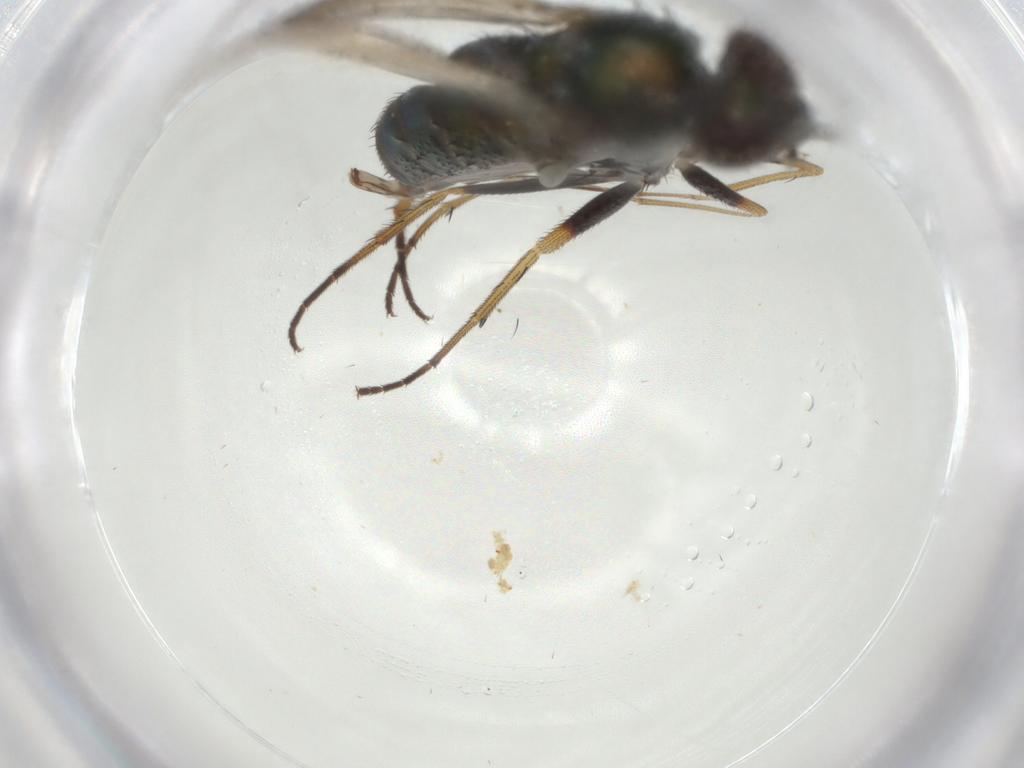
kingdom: Animalia
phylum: Arthropoda
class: Insecta
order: Diptera
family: Dolichopodidae
